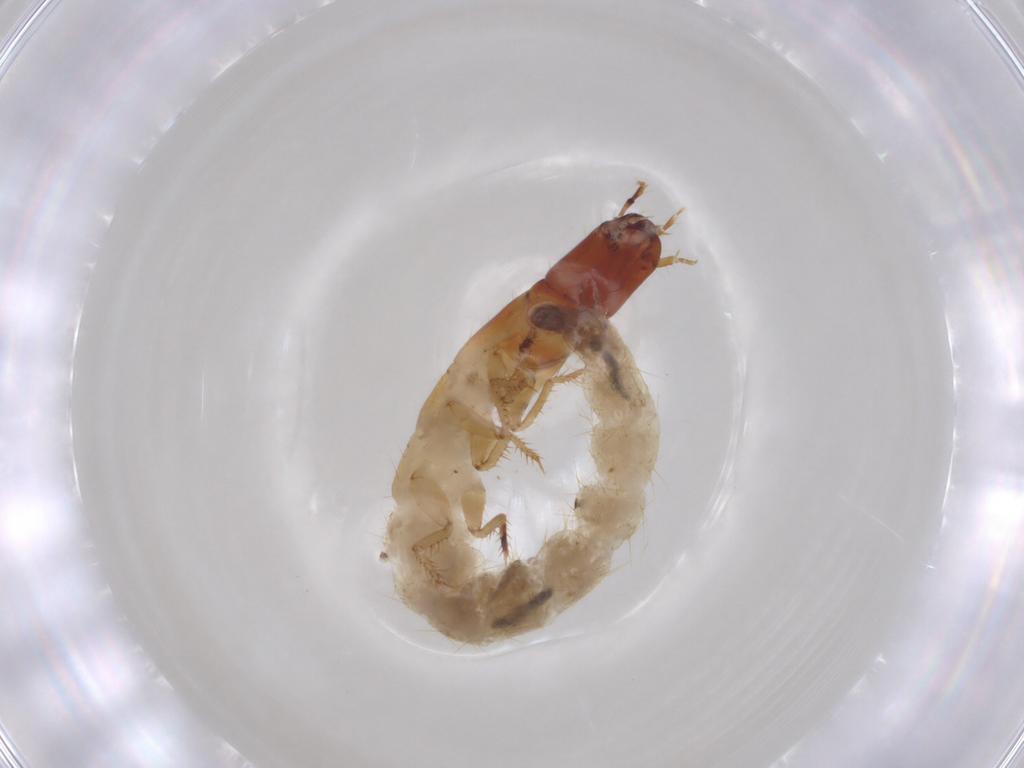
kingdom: Animalia
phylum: Arthropoda
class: Insecta
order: Coleoptera
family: Staphylinidae
